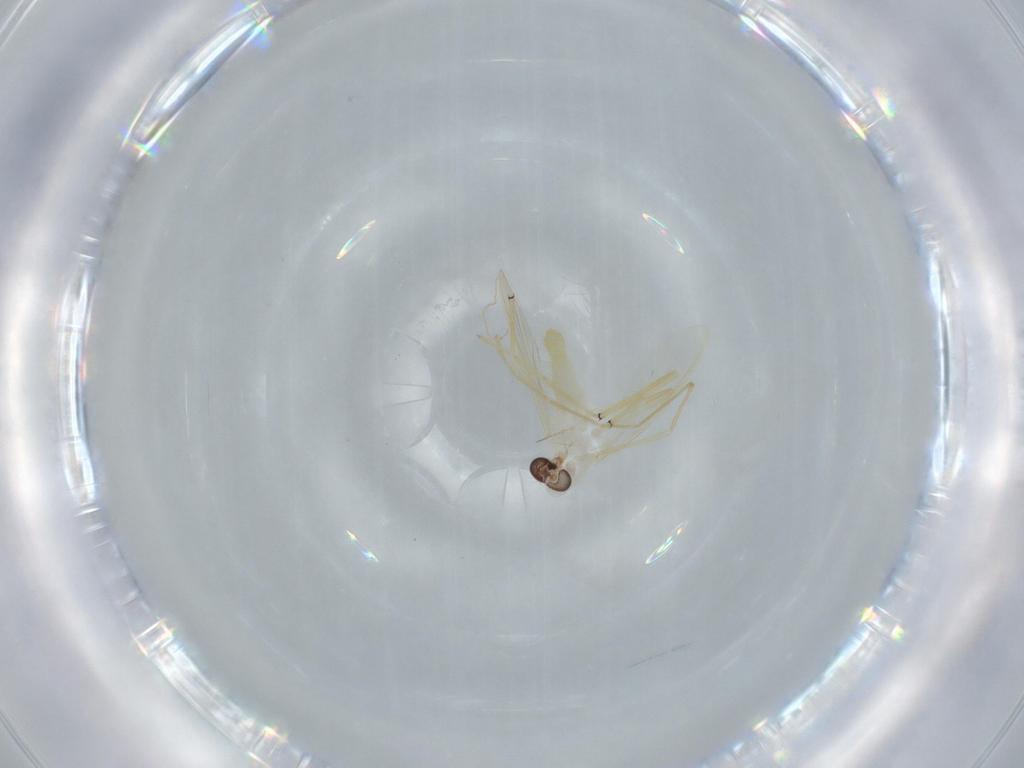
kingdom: Animalia
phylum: Arthropoda
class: Insecta
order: Diptera
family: Chironomidae
